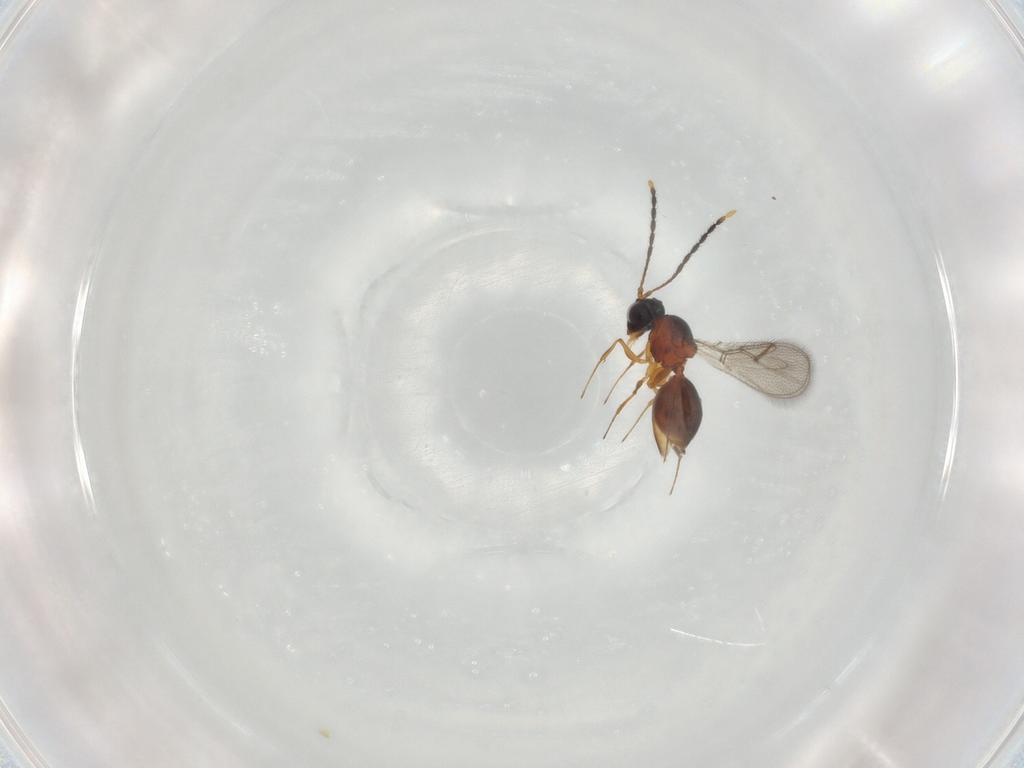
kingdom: Animalia
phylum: Arthropoda
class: Insecta
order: Hymenoptera
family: Figitidae
